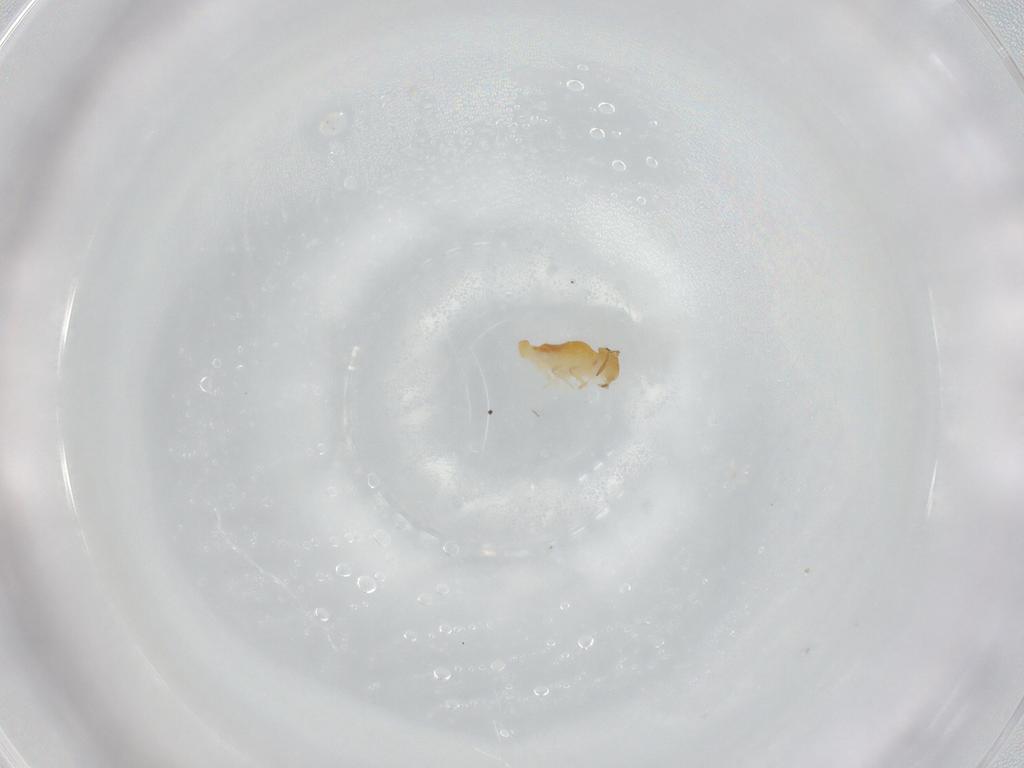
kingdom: Animalia
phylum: Arthropoda
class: Collembola
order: Symphypleona
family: Bourletiellidae
